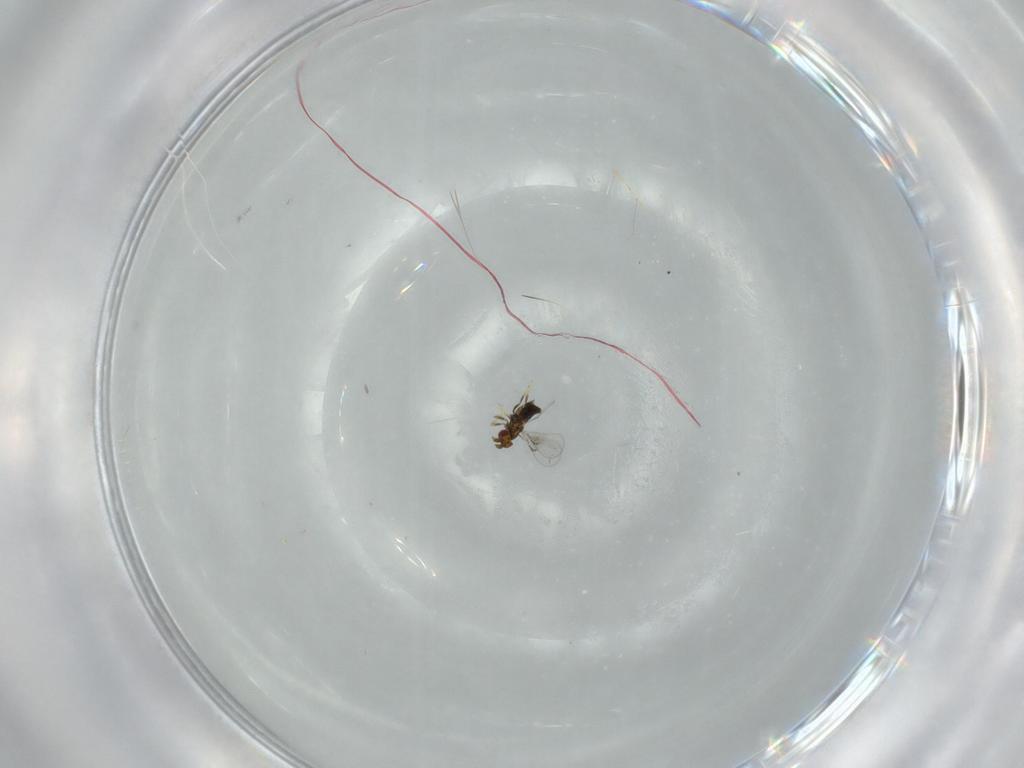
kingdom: Animalia
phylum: Arthropoda
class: Insecta
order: Hymenoptera
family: Trichogrammatidae
